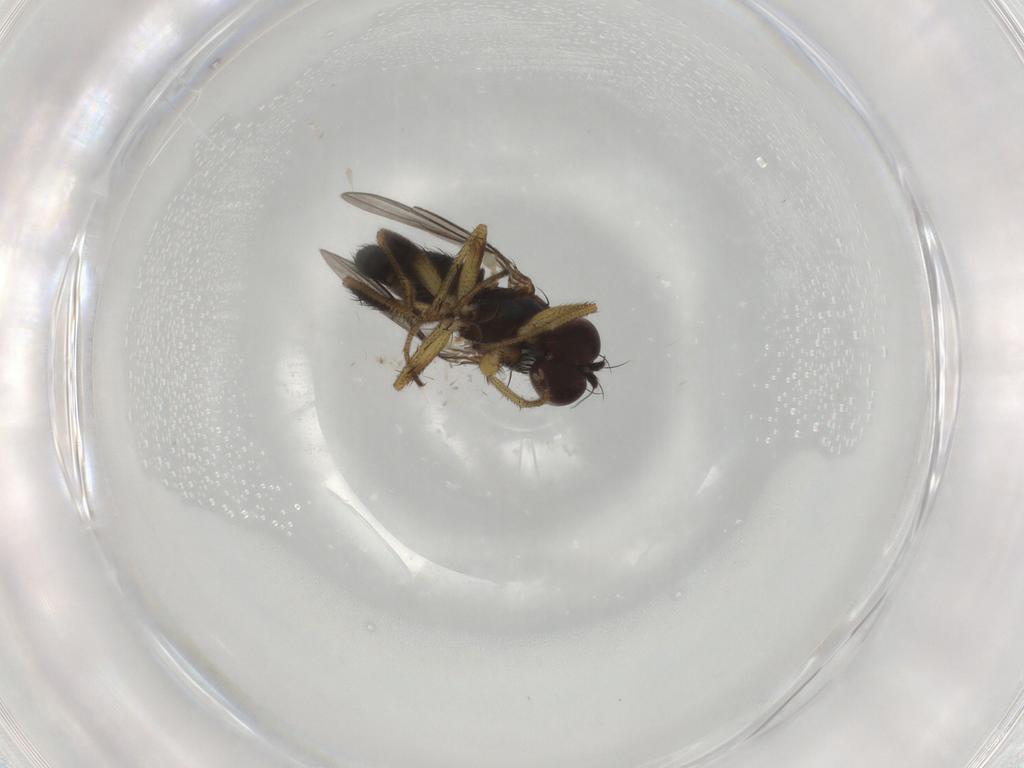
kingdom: Animalia
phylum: Arthropoda
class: Insecta
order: Diptera
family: Dolichopodidae
